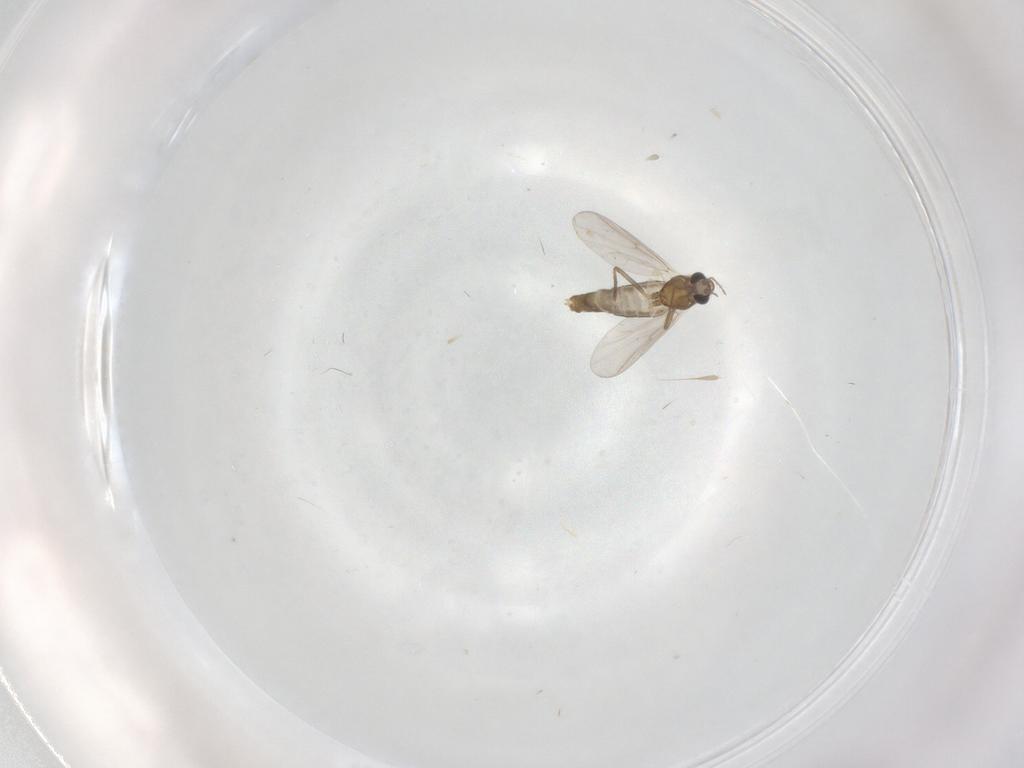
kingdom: Animalia
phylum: Arthropoda
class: Insecta
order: Diptera
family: Chironomidae
